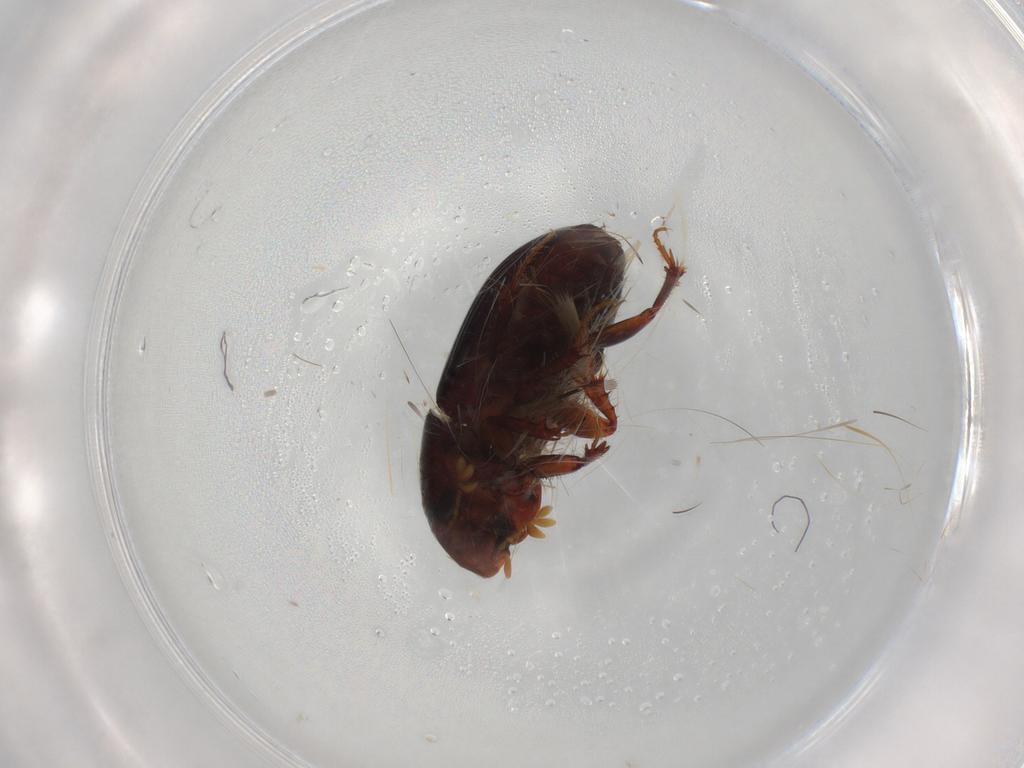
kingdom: Animalia
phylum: Arthropoda
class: Insecta
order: Coleoptera
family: Scarabaeidae
